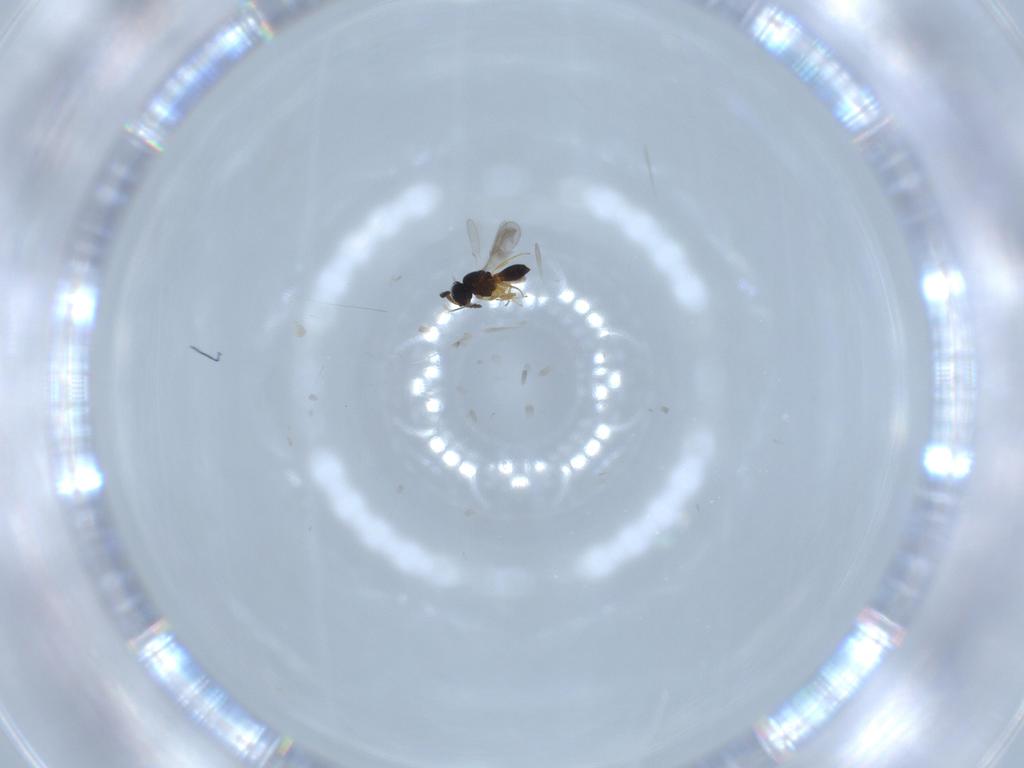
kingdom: Animalia
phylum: Arthropoda
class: Insecta
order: Hymenoptera
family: Scelionidae
